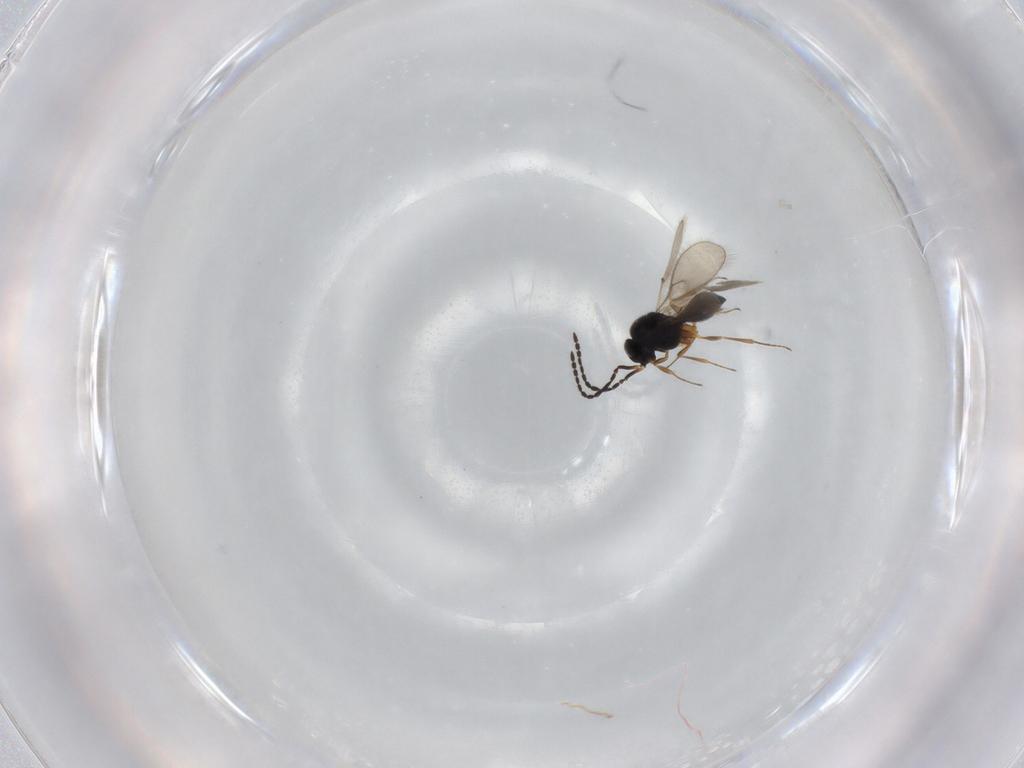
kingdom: Animalia
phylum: Arthropoda
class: Insecta
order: Hymenoptera
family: Scelionidae
